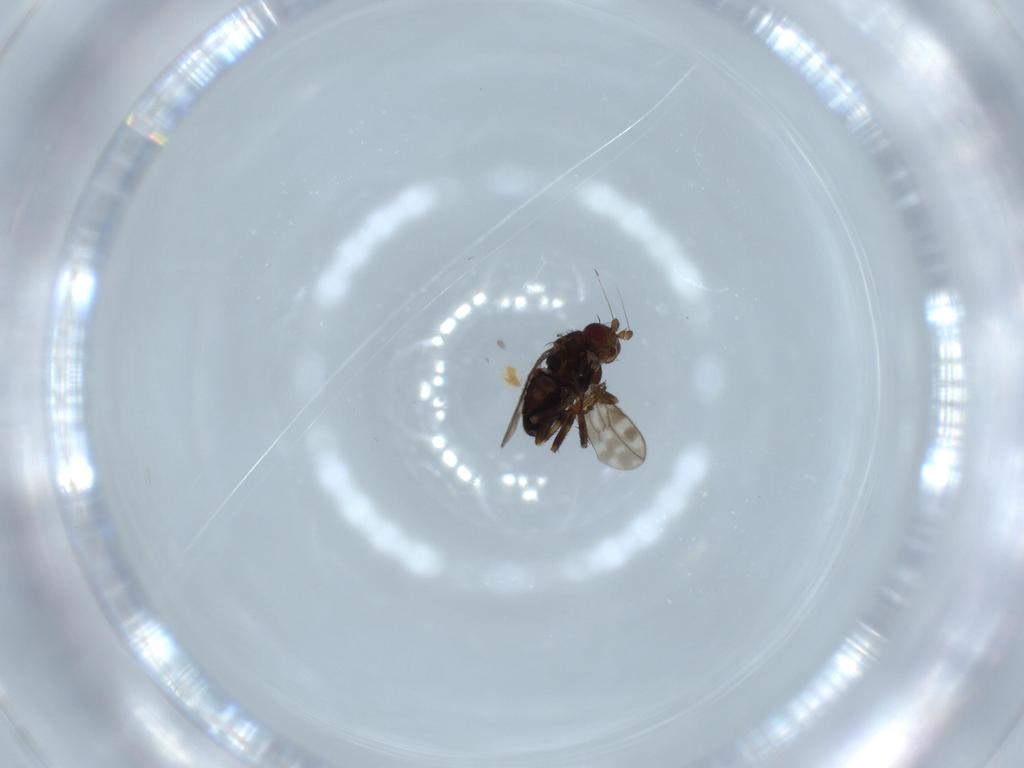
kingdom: Animalia
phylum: Arthropoda
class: Insecta
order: Diptera
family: Sphaeroceridae
